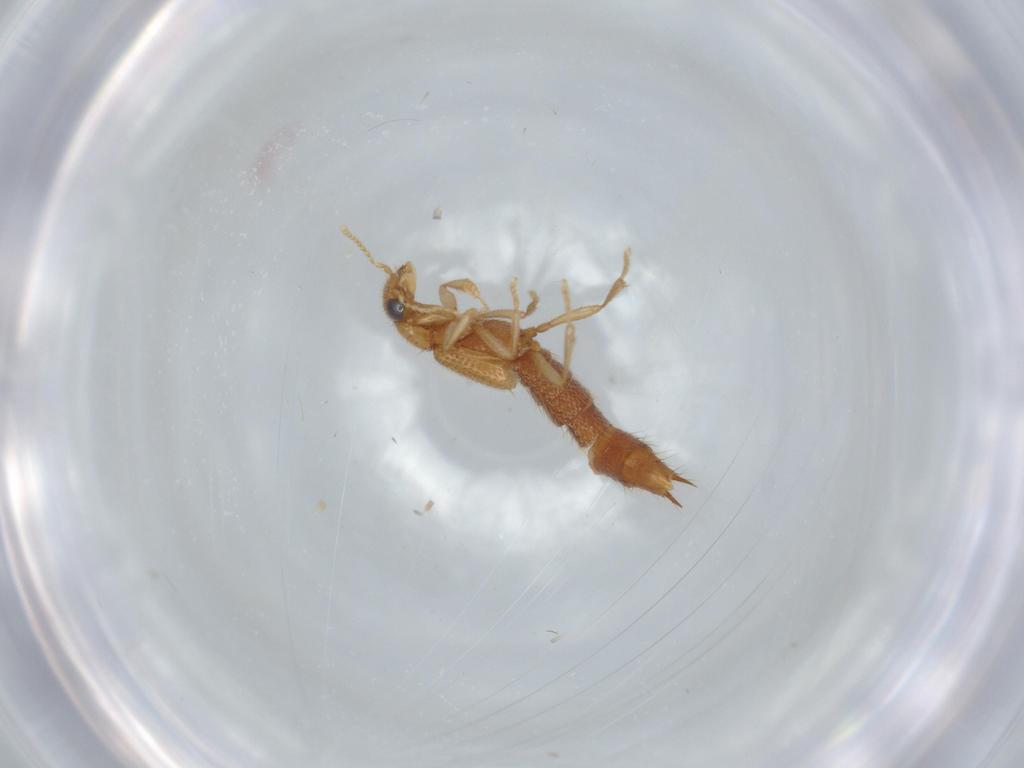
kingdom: Animalia
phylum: Arthropoda
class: Insecta
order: Coleoptera
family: Staphylinidae
